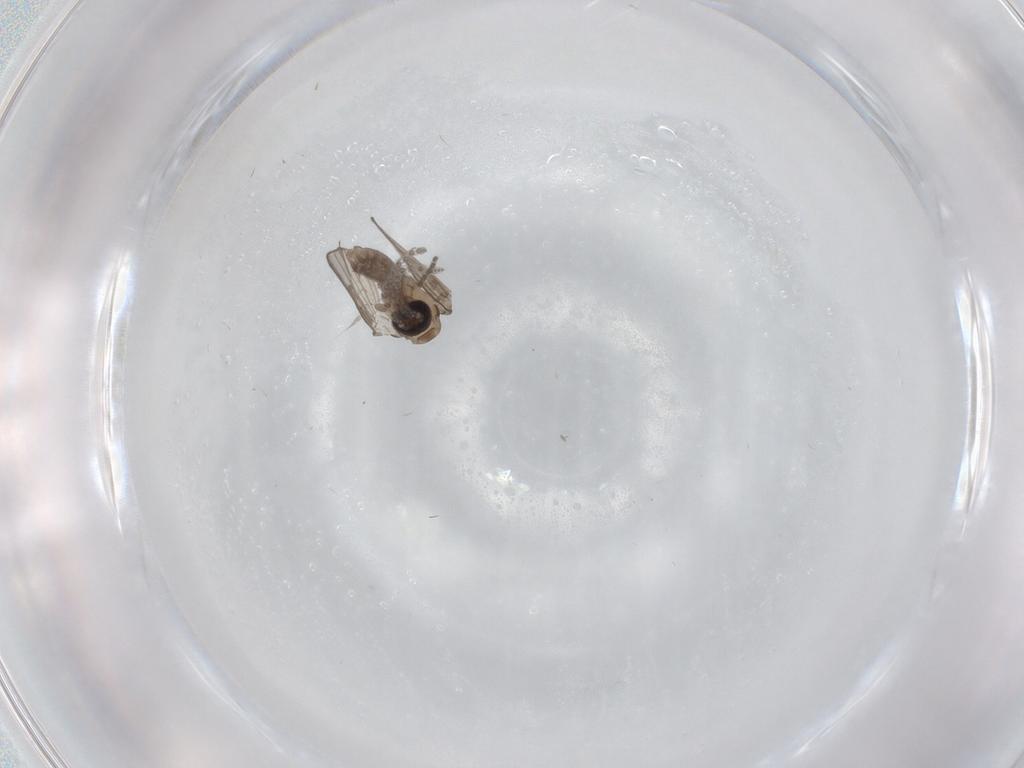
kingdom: Animalia
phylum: Arthropoda
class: Insecta
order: Diptera
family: Psychodidae
